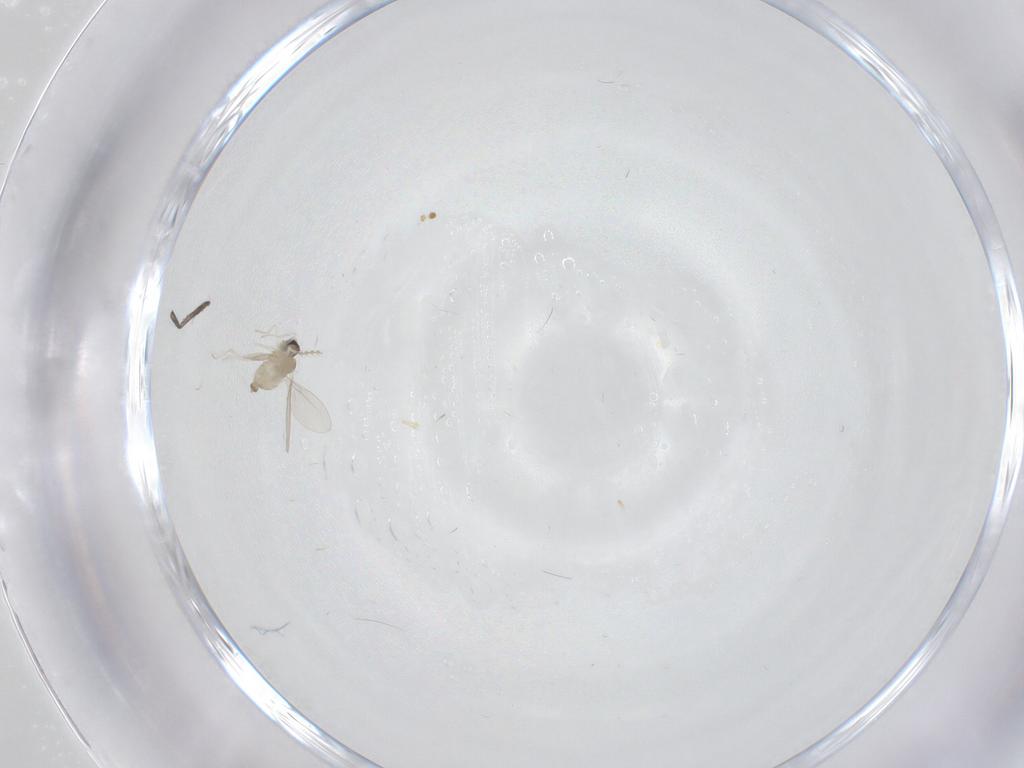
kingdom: Animalia
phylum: Arthropoda
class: Insecta
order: Diptera
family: Cecidomyiidae
